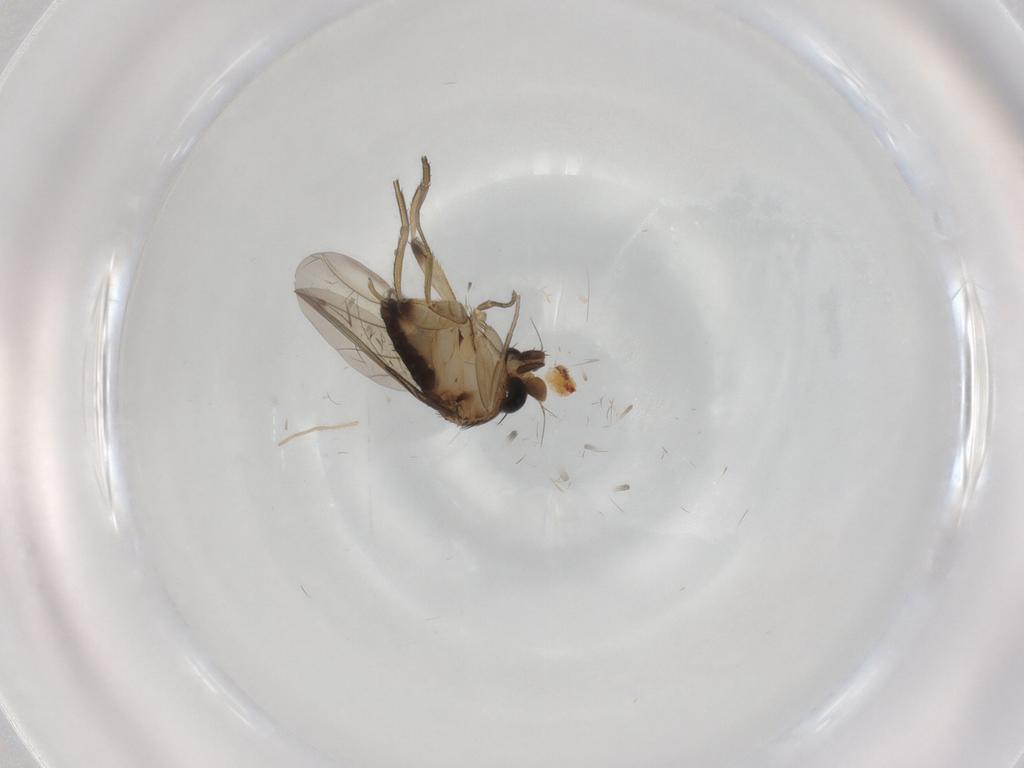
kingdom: Animalia
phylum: Arthropoda
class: Insecta
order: Diptera
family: Phoridae
